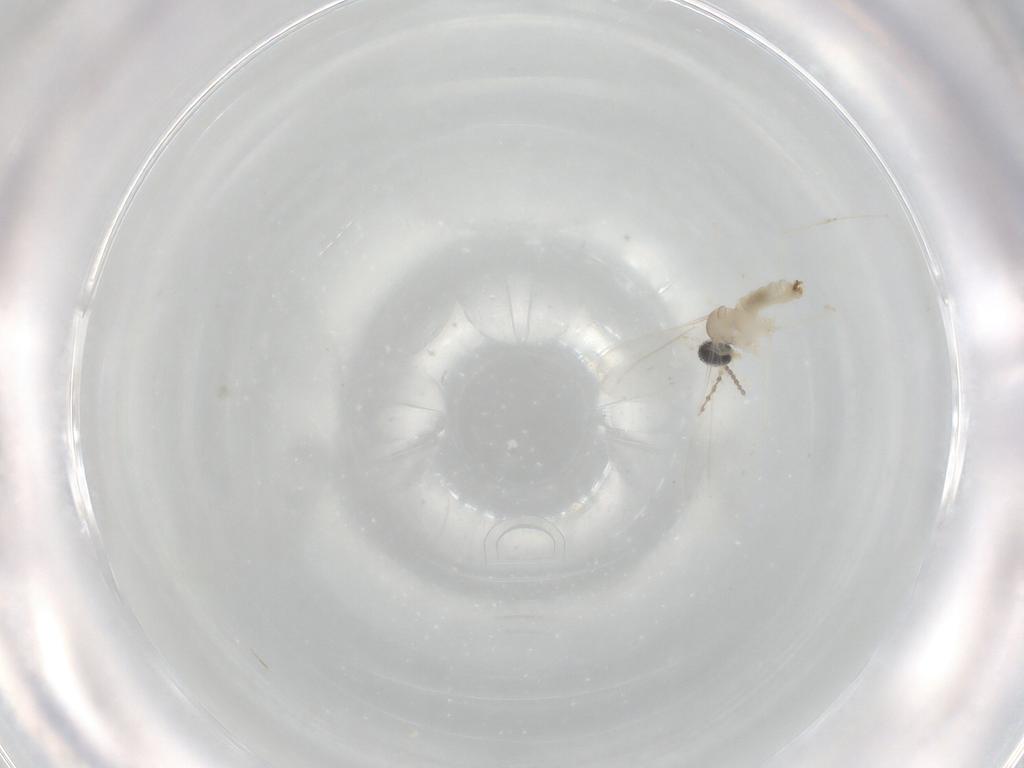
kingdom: Animalia
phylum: Arthropoda
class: Insecta
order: Diptera
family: Cecidomyiidae
